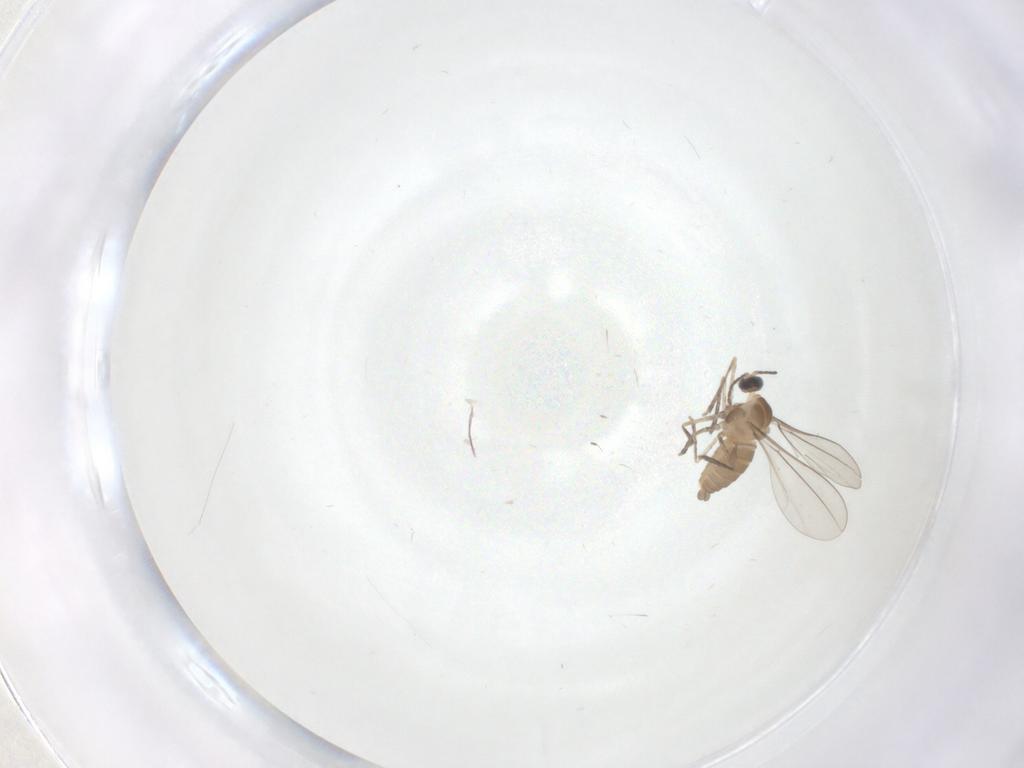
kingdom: Animalia
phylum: Arthropoda
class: Insecta
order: Diptera
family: Cecidomyiidae
